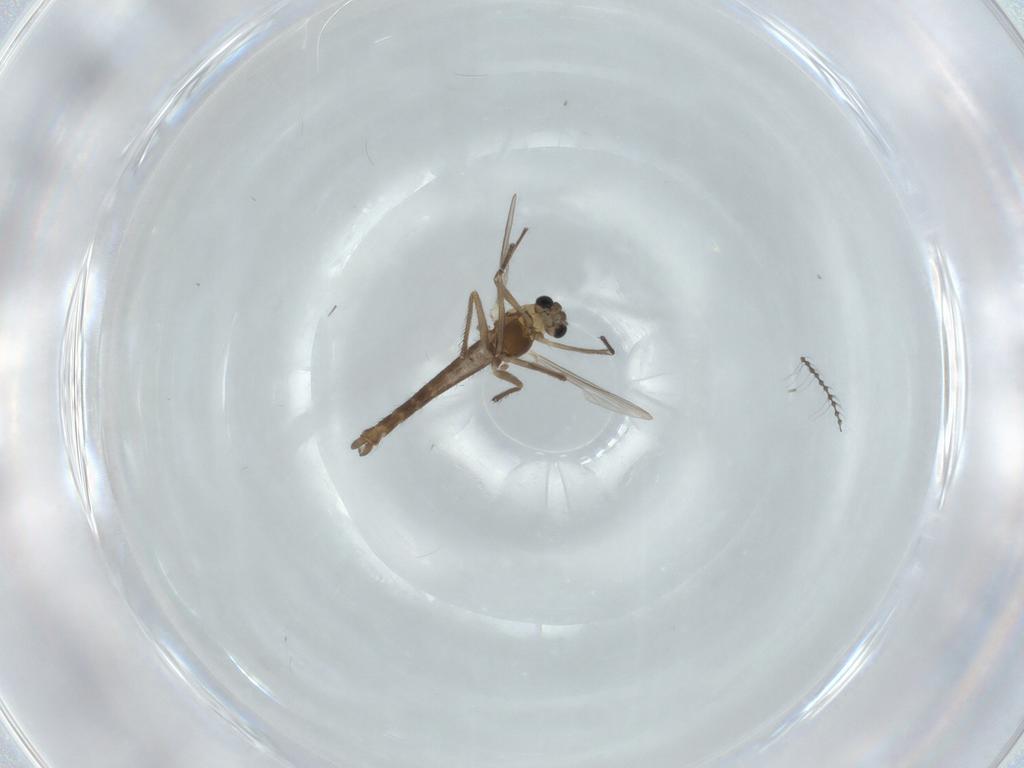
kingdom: Animalia
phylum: Arthropoda
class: Insecta
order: Diptera
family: Chironomidae
